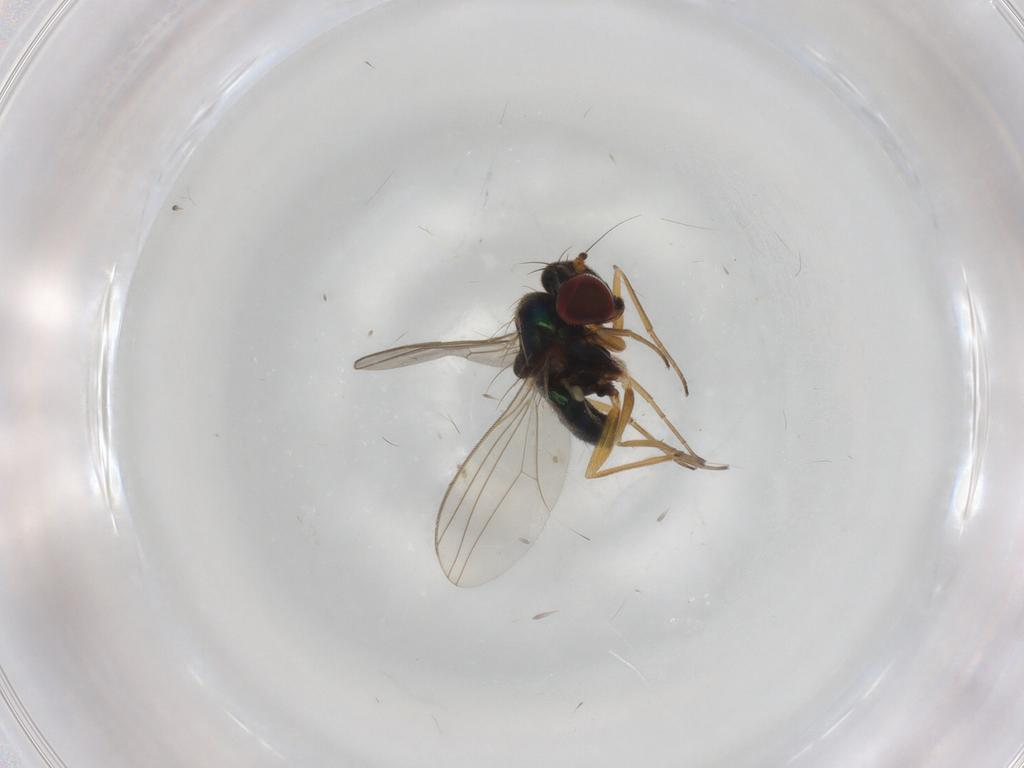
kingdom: Animalia
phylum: Arthropoda
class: Insecta
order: Diptera
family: Dolichopodidae
